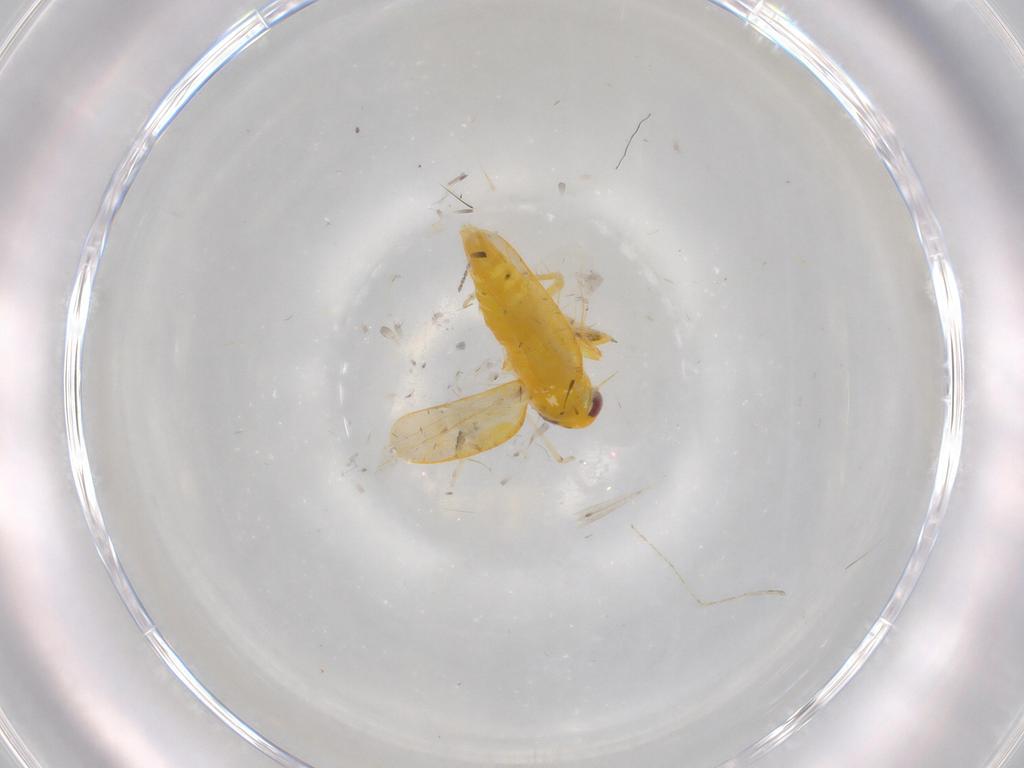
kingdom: Animalia
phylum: Arthropoda
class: Insecta
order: Hemiptera
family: Cicadellidae
